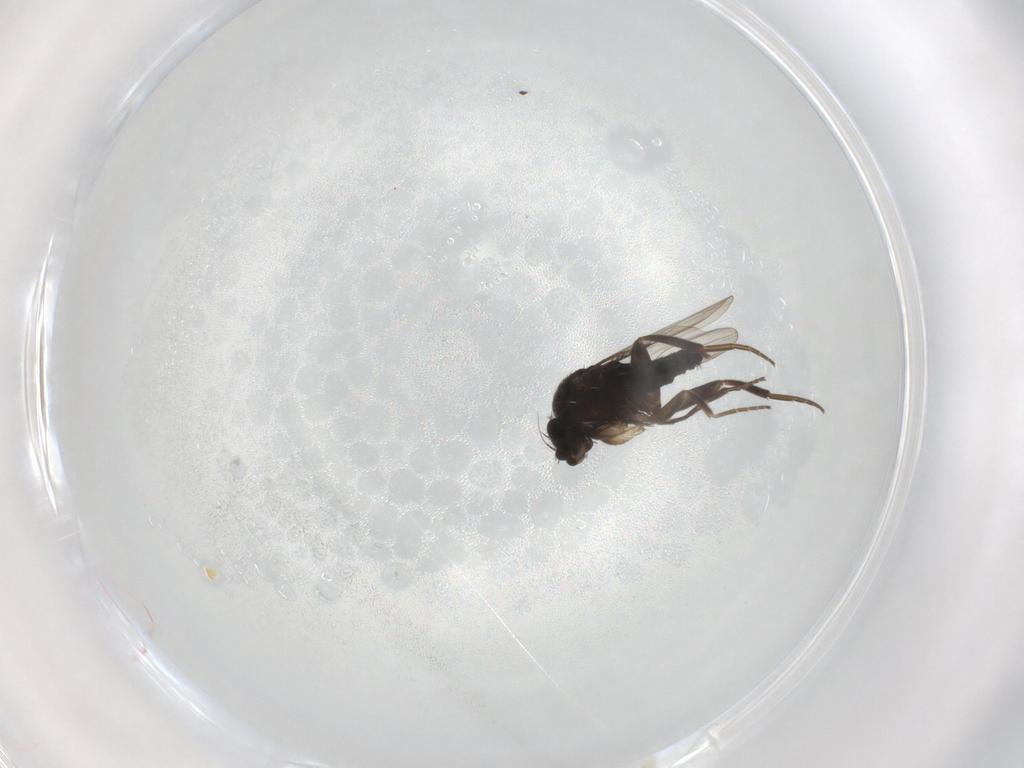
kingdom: Animalia
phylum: Arthropoda
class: Insecta
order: Diptera
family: Phoridae
